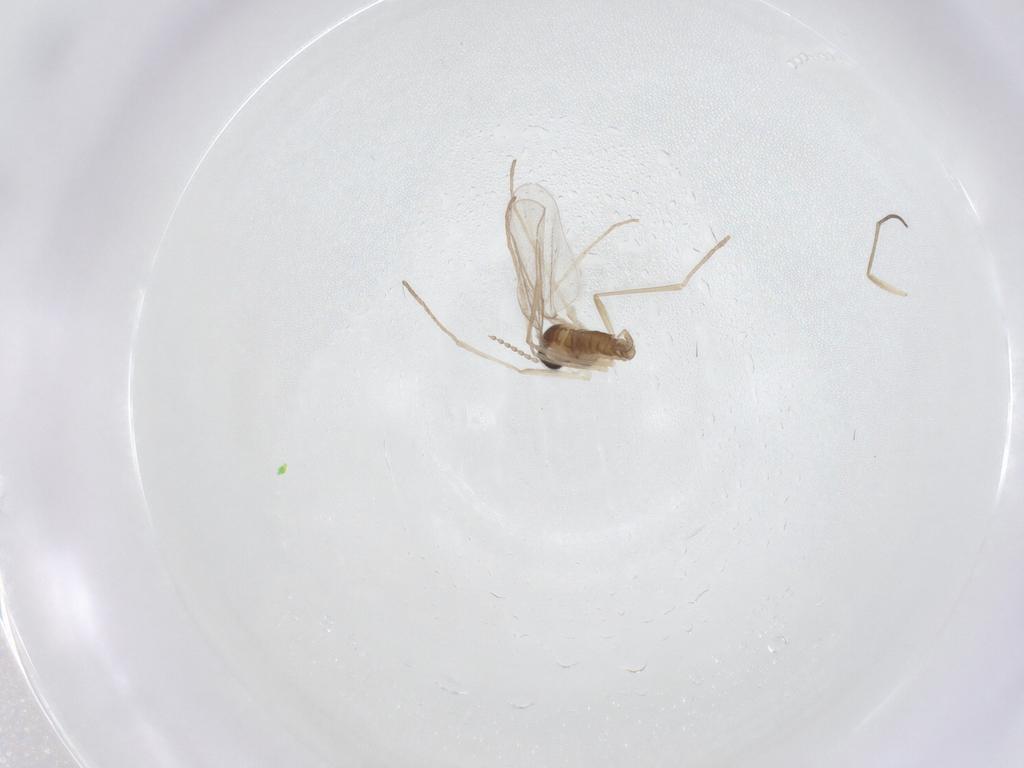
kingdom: Animalia
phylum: Arthropoda
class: Insecta
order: Diptera
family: Cecidomyiidae
